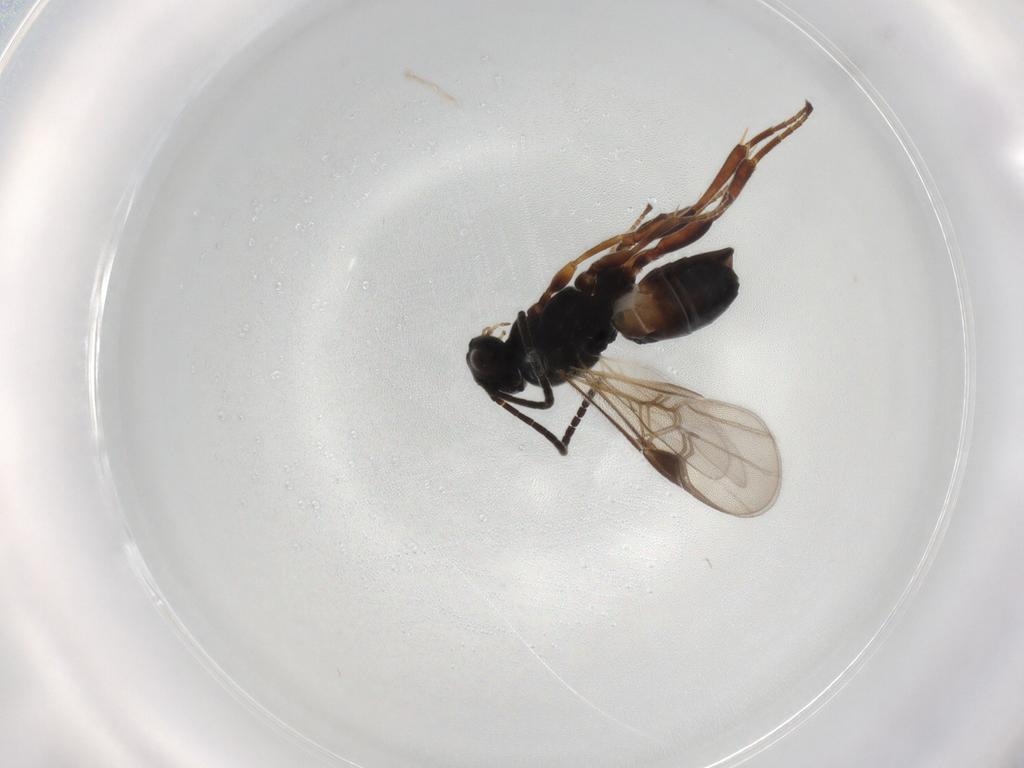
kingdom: Animalia
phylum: Arthropoda
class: Insecta
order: Hymenoptera
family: Braconidae
